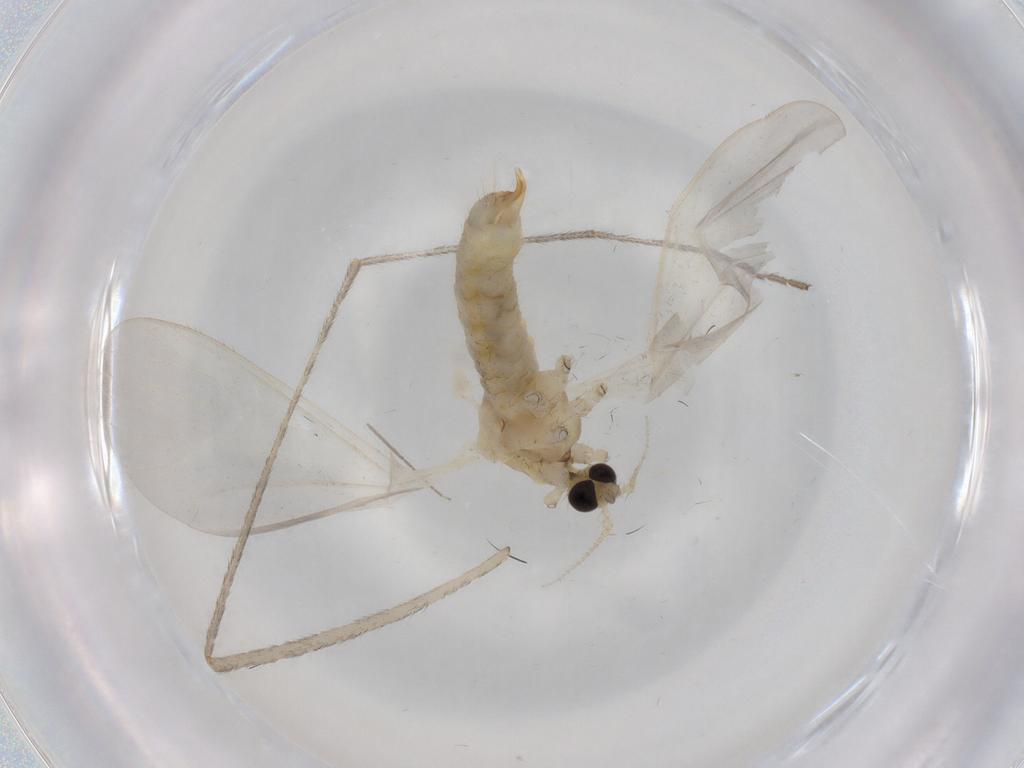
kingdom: Animalia
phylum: Arthropoda
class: Insecta
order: Diptera
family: Limoniidae
